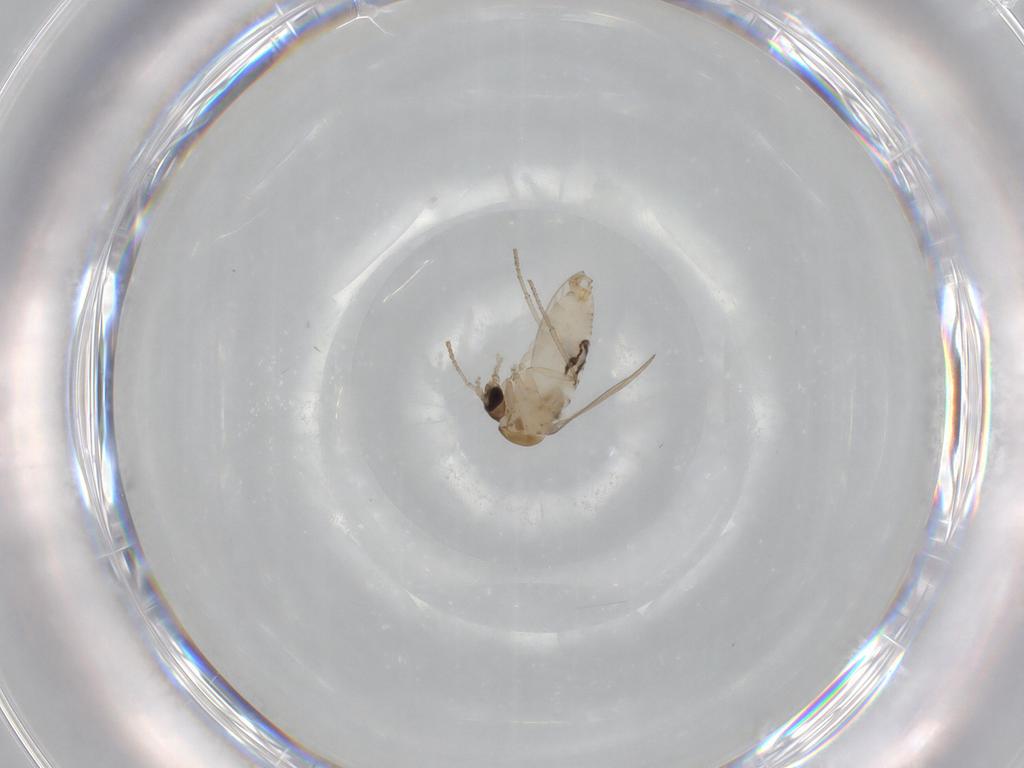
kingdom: Animalia
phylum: Arthropoda
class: Insecta
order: Diptera
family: Psychodidae
